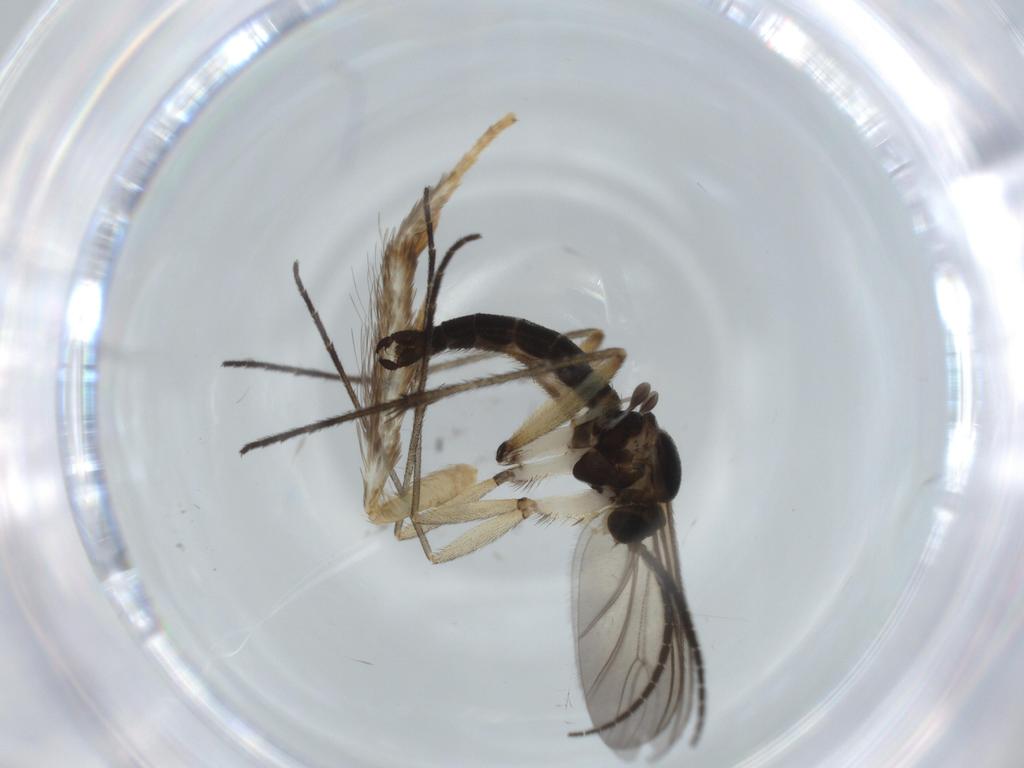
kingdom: Animalia
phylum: Arthropoda
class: Insecta
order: Diptera
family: Sciaridae
